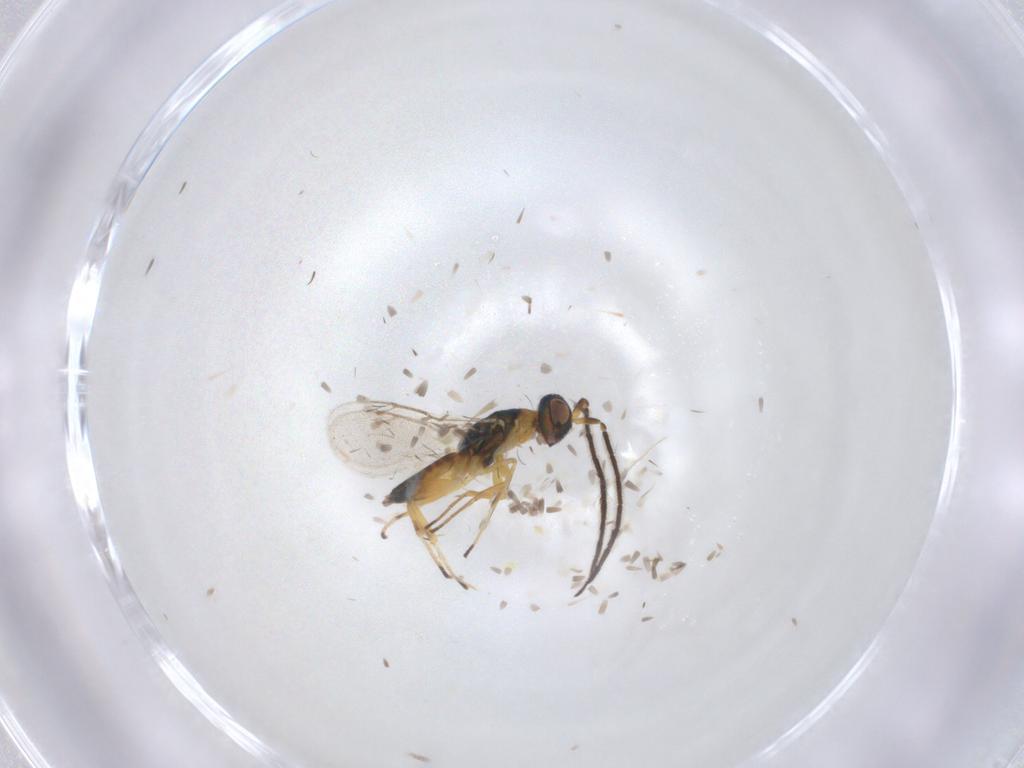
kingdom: Animalia
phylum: Arthropoda
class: Insecta
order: Hymenoptera
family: Eupelmidae
